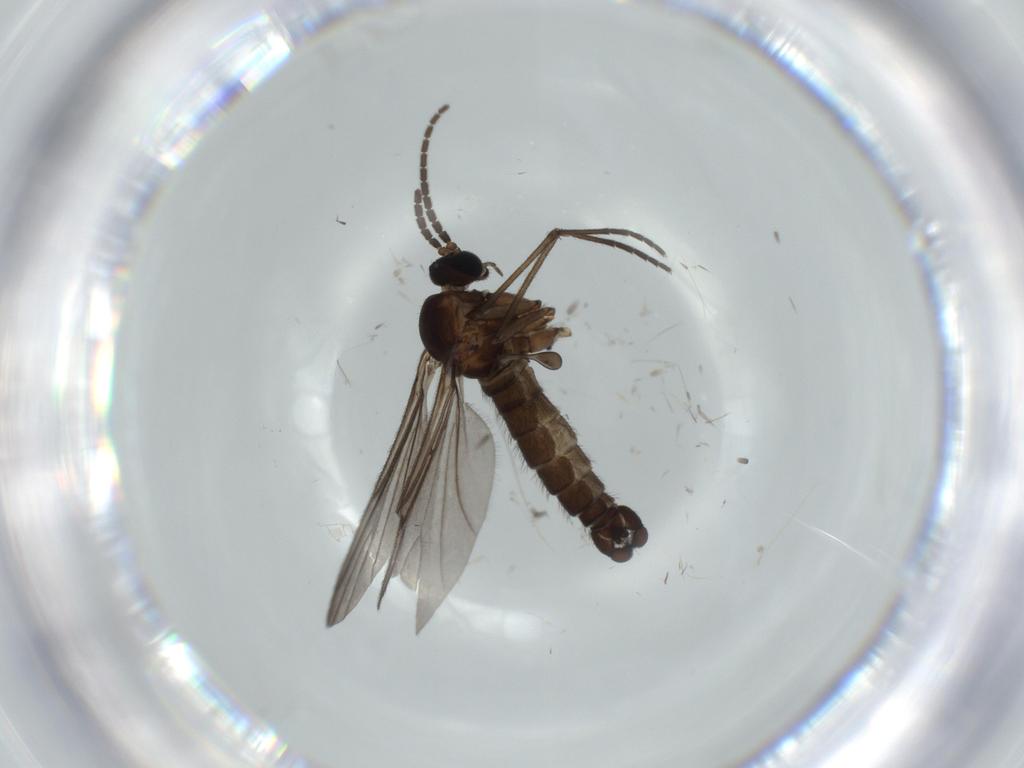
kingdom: Animalia
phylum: Arthropoda
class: Insecta
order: Diptera
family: Sciaridae
